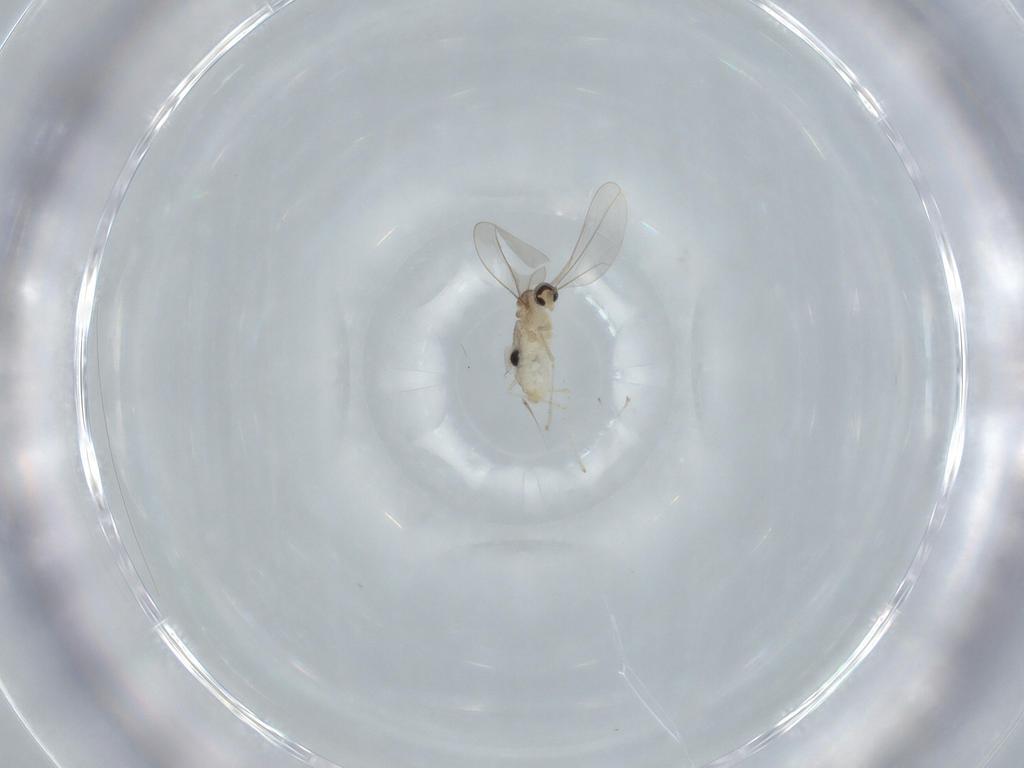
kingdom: Animalia
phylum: Arthropoda
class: Insecta
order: Diptera
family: Cecidomyiidae
